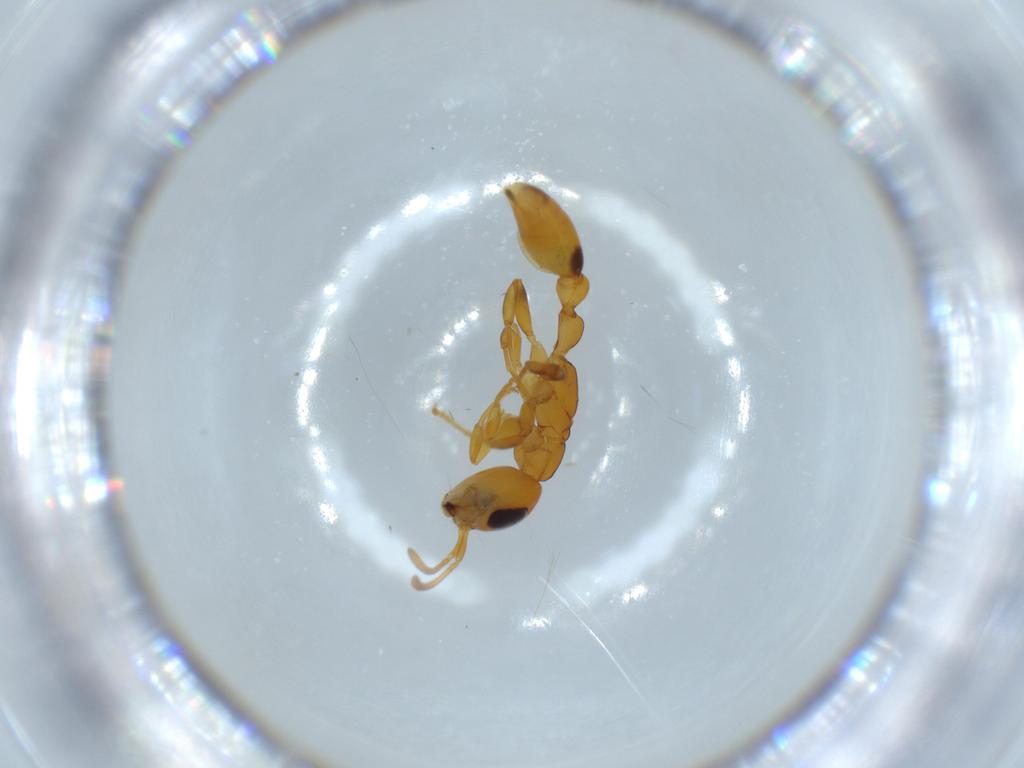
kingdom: Animalia
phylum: Arthropoda
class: Insecta
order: Hymenoptera
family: Formicidae
